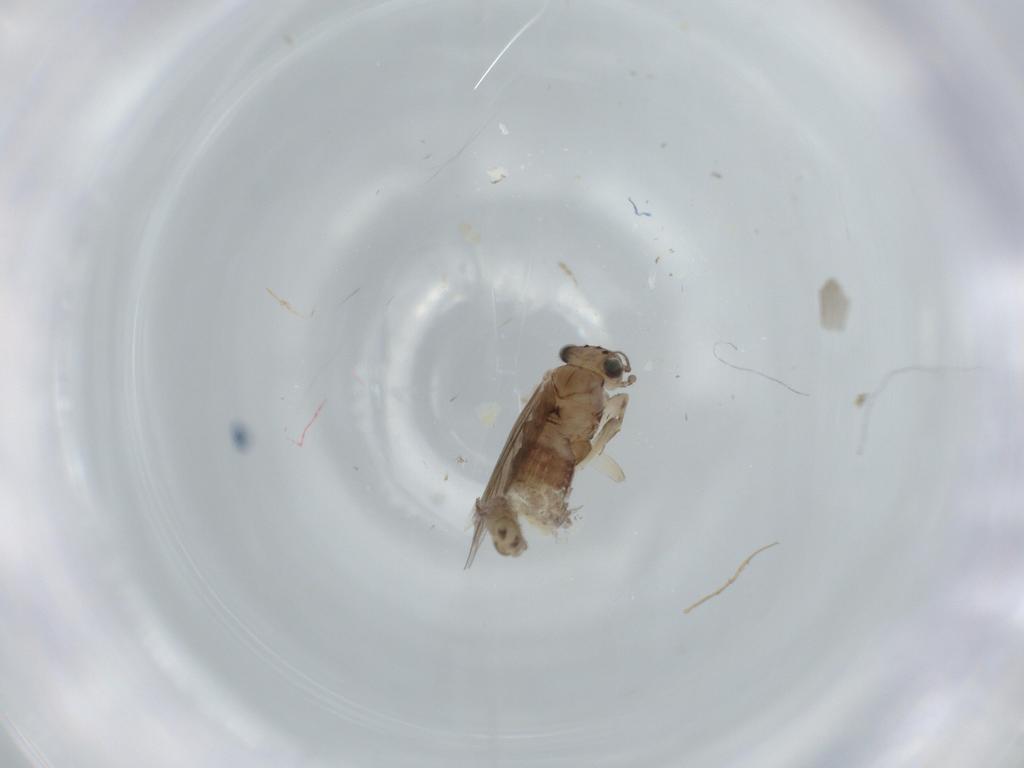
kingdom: Animalia
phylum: Arthropoda
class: Insecta
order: Psocodea
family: Lepidopsocidae
